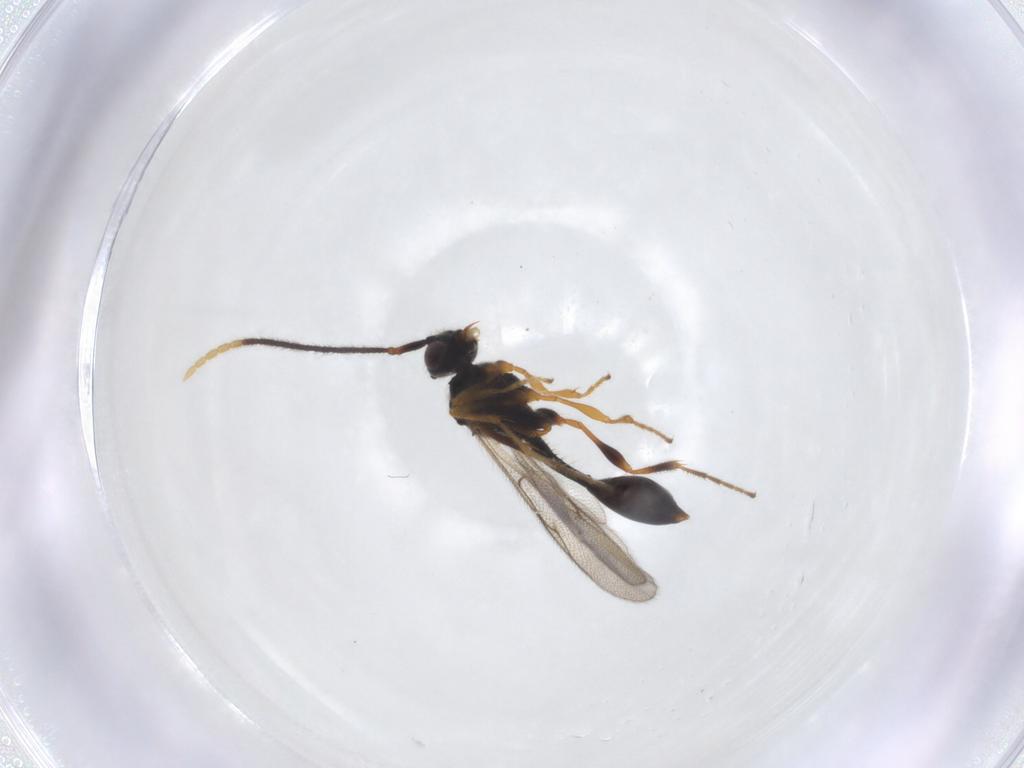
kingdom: Animalia
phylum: Arthropoda
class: Insecta
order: Hymenoptera
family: Diapriidae
